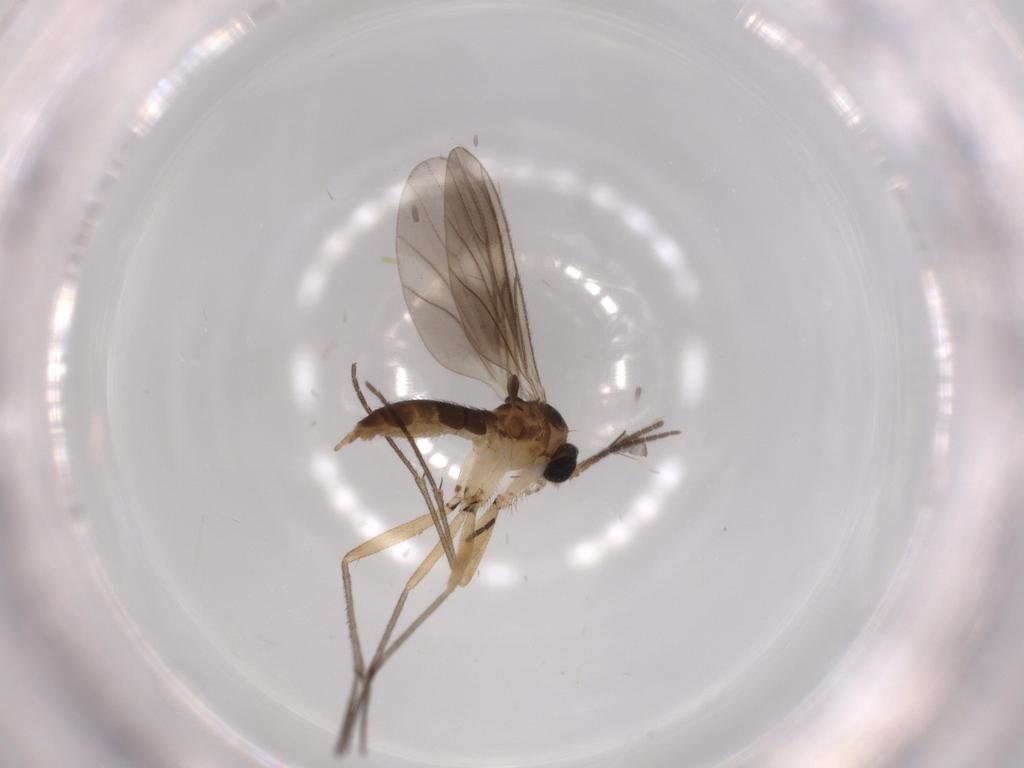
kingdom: Animalia
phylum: Arthropoda
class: Insecta
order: Diptera
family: Sciaridae
